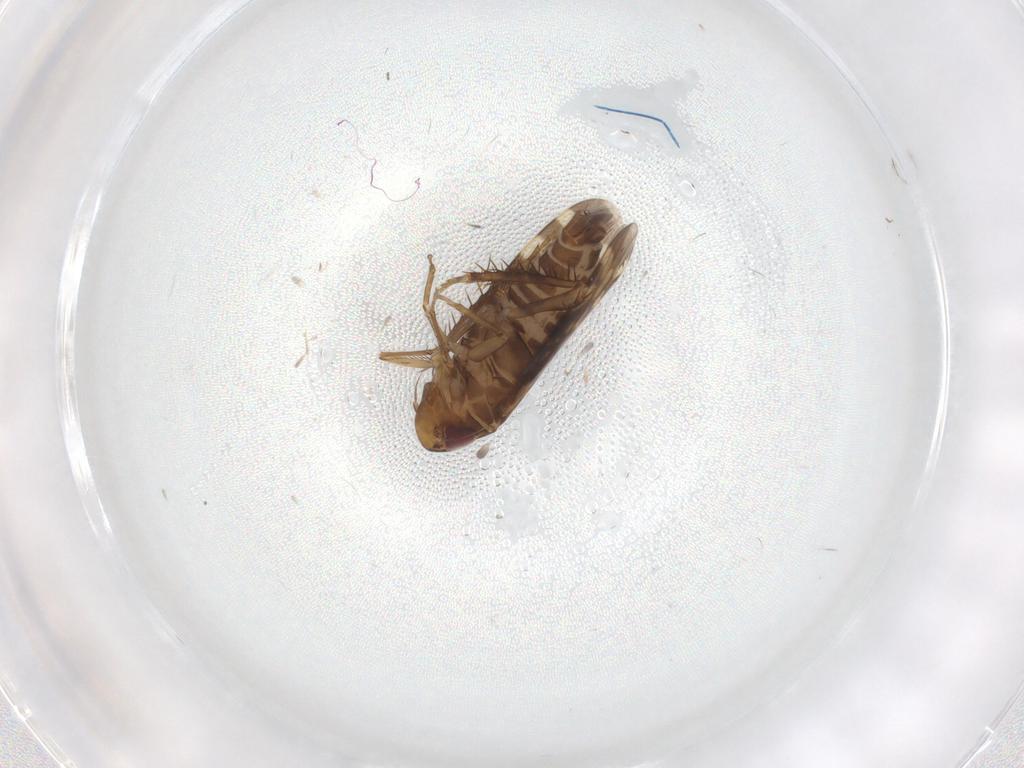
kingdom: Animalia
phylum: Arthropoda
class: Insecta
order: Hemiptera
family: Cicadellidae
